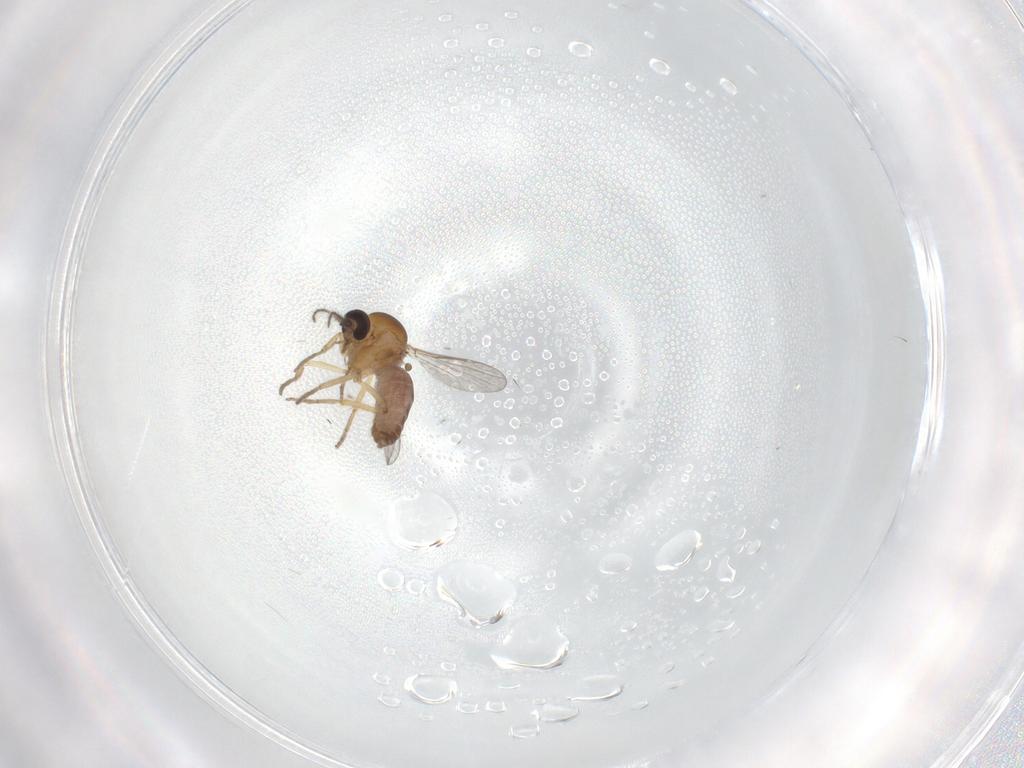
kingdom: Animalia
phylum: Arthropoda
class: Insecta
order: Diptera
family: Ceratopogonidae
